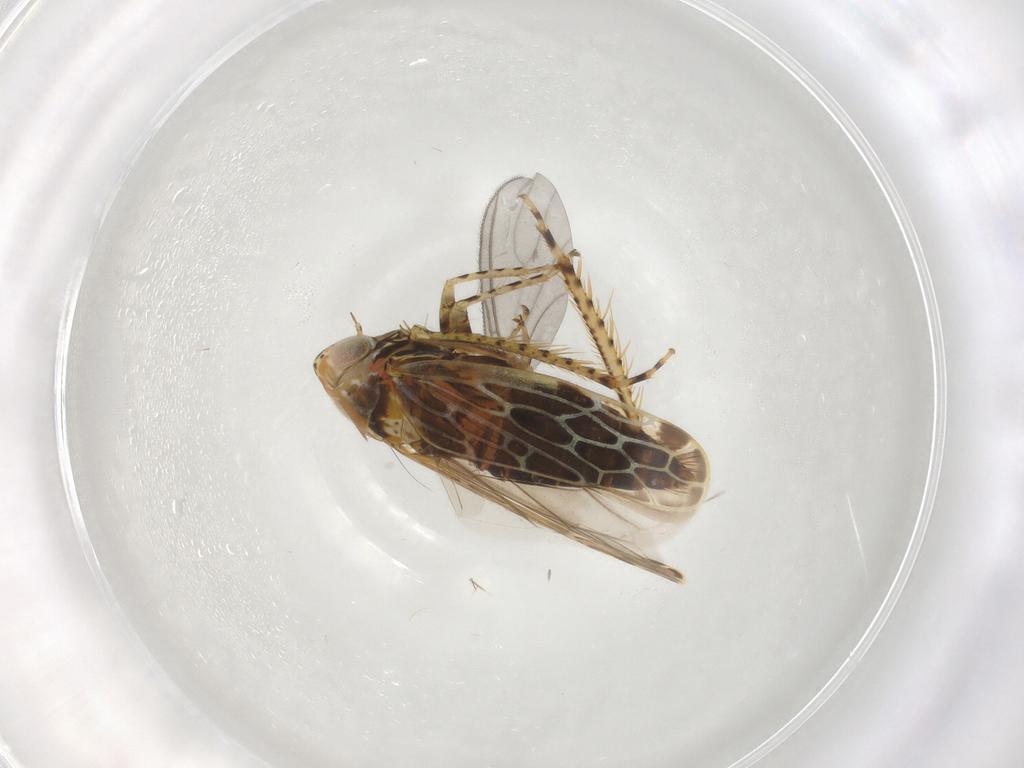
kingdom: Animalia
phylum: Arthropoda
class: Insecta
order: Hemiptera
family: Cicadellidae
